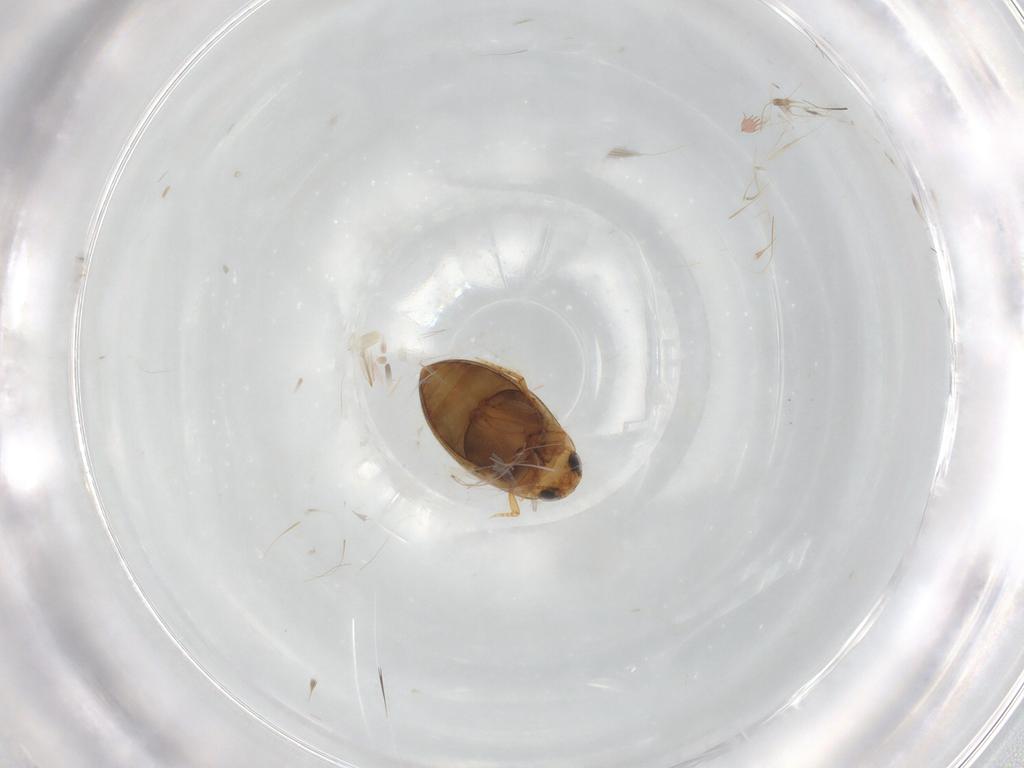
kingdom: Animalia
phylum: Arthropoda
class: Insecta
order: Coleoptera
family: Dytiscidae
